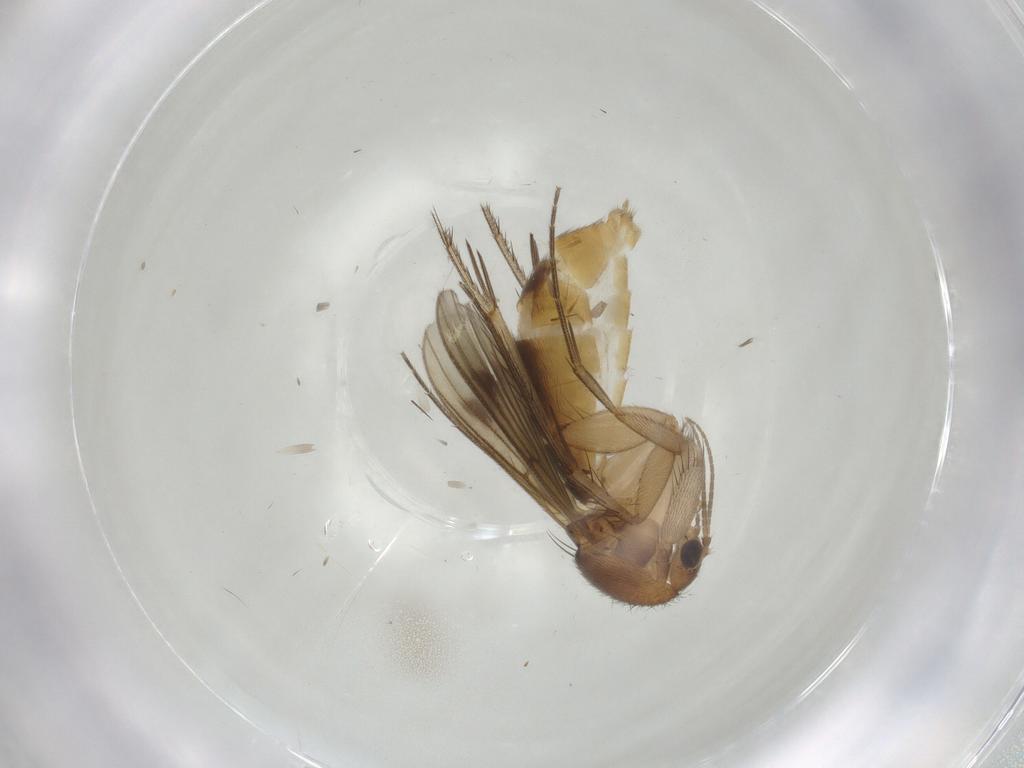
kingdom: Animalia
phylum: Arthropoda
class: Insecta
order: Diptera
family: Mycetophilidae
